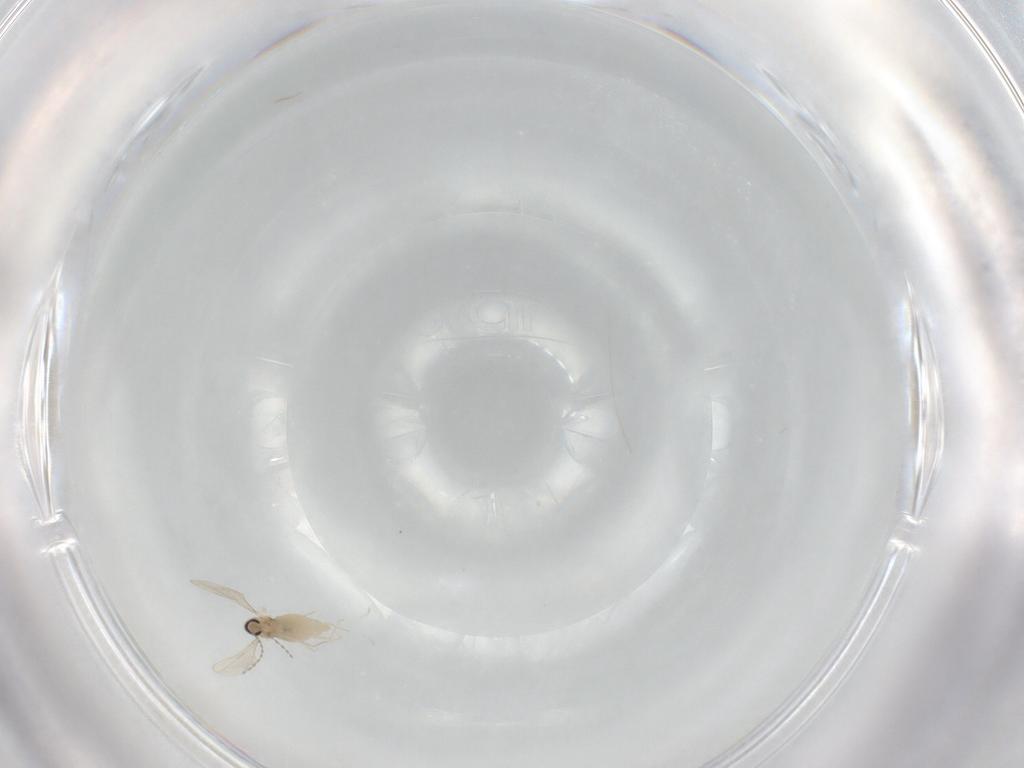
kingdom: Animalia
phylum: Arthropoda
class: Insecta
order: Diptera
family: Cecidomyiidae
